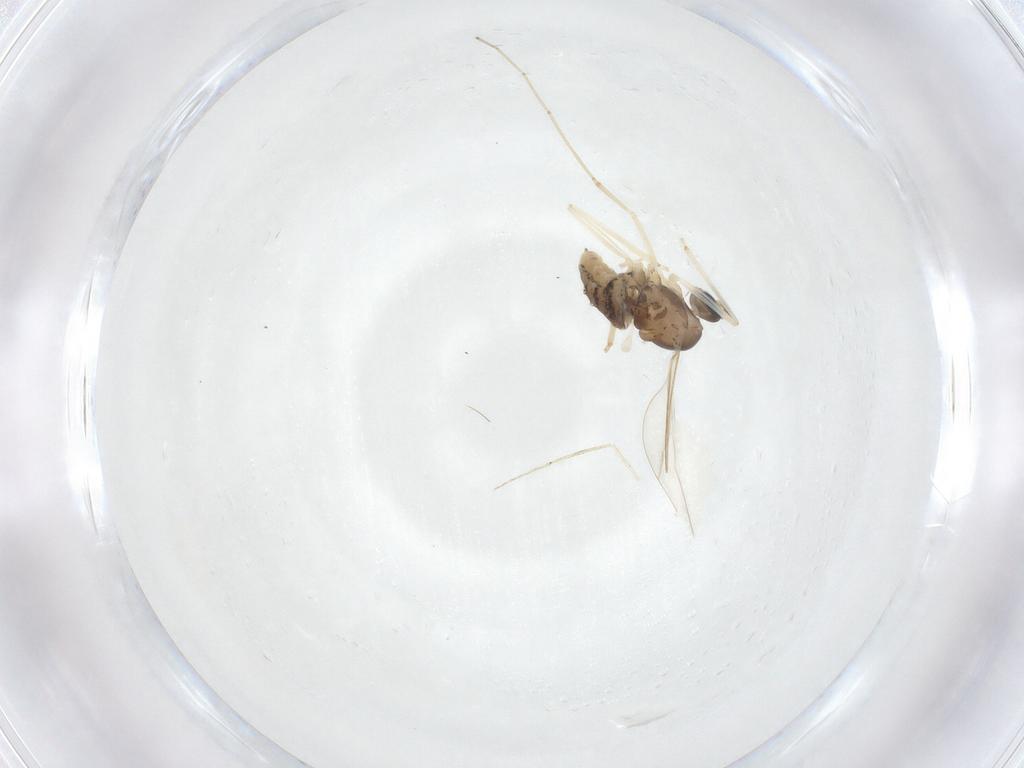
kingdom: Animalia
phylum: Arthropoda
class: Insecta
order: Diptera
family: Cecidomyiidae
